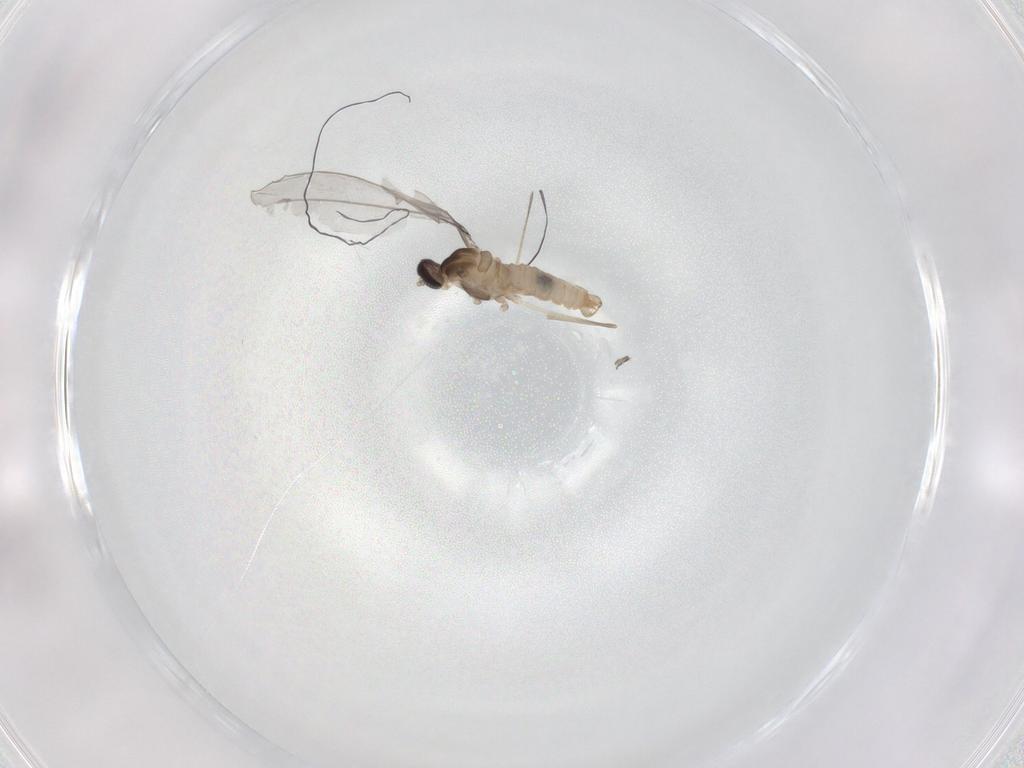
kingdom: Animalia
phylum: Arthropoda
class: Insecta
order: Diptera
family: Cecidomyiidae
